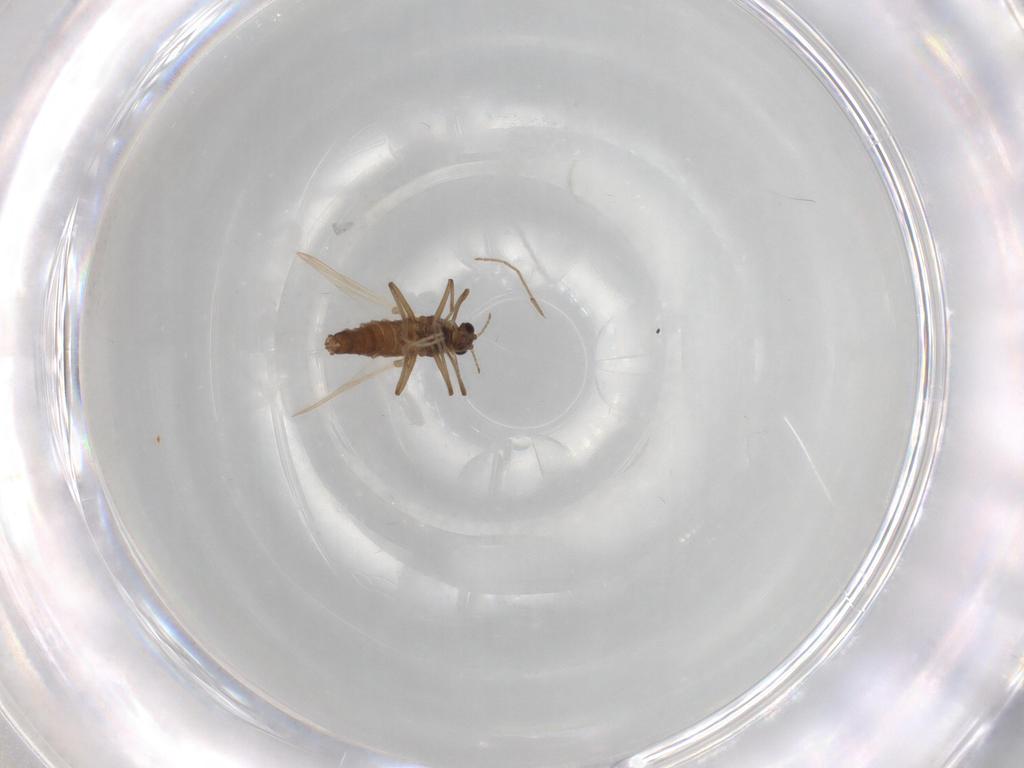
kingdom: Animalia
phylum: Arthropoda
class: Insecta
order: Diptera
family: Chironomidae
